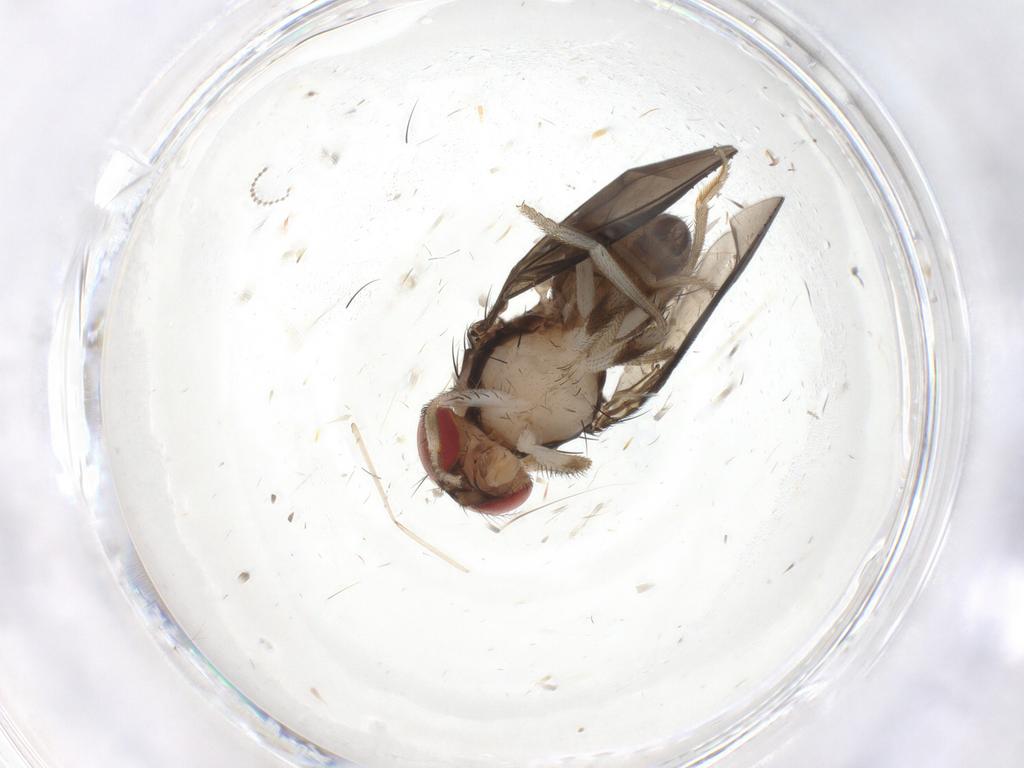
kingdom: Animalia
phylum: Arthropoda
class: Insecta
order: Diptera
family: Drosophilidae
